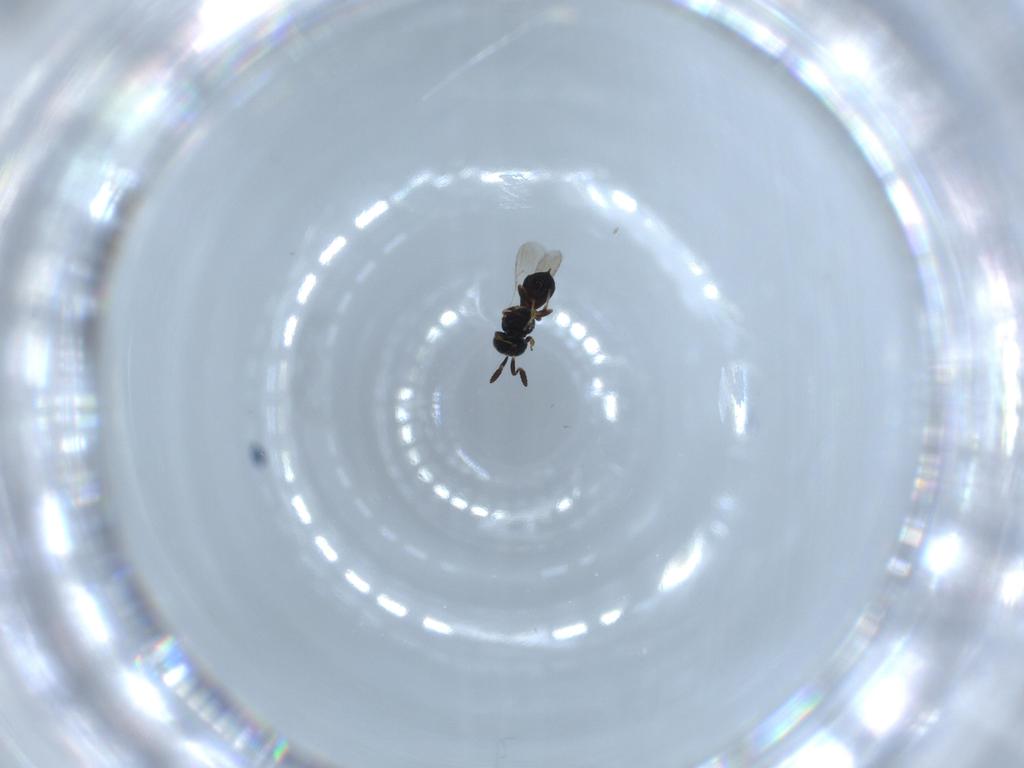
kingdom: Animalia
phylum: Arthropoda
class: Insecta
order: Hymenoptera
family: Scelionidae
